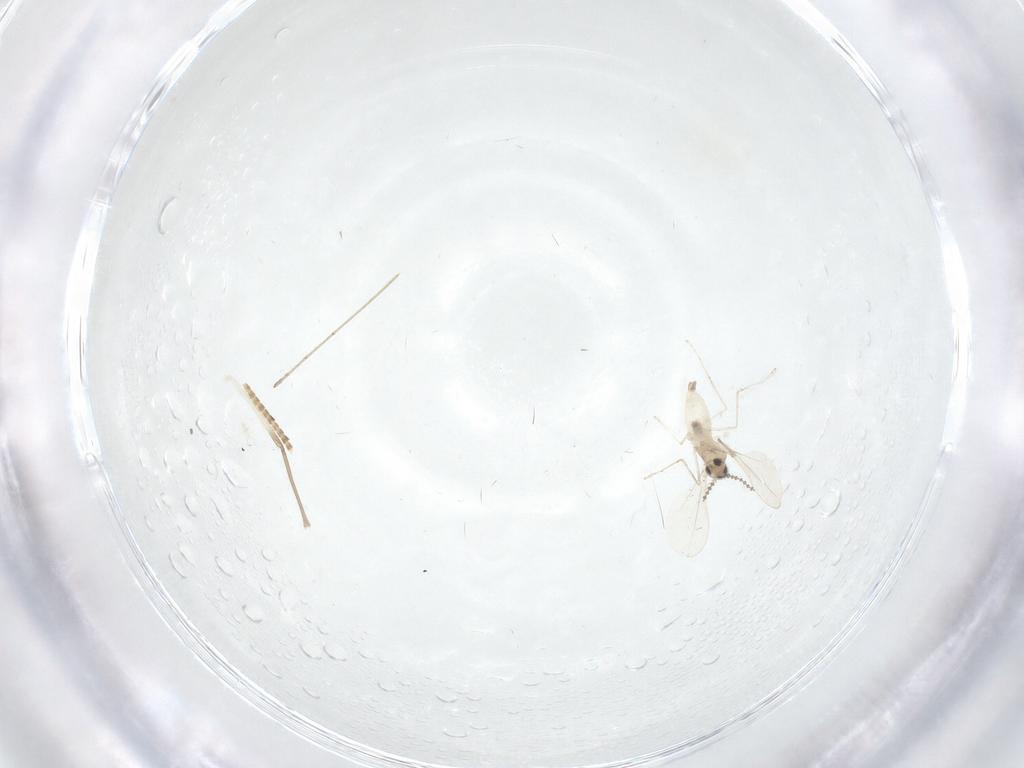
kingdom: Animalia
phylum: Arthropoda
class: Insecta
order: Diptera
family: Cecidomyiidae
